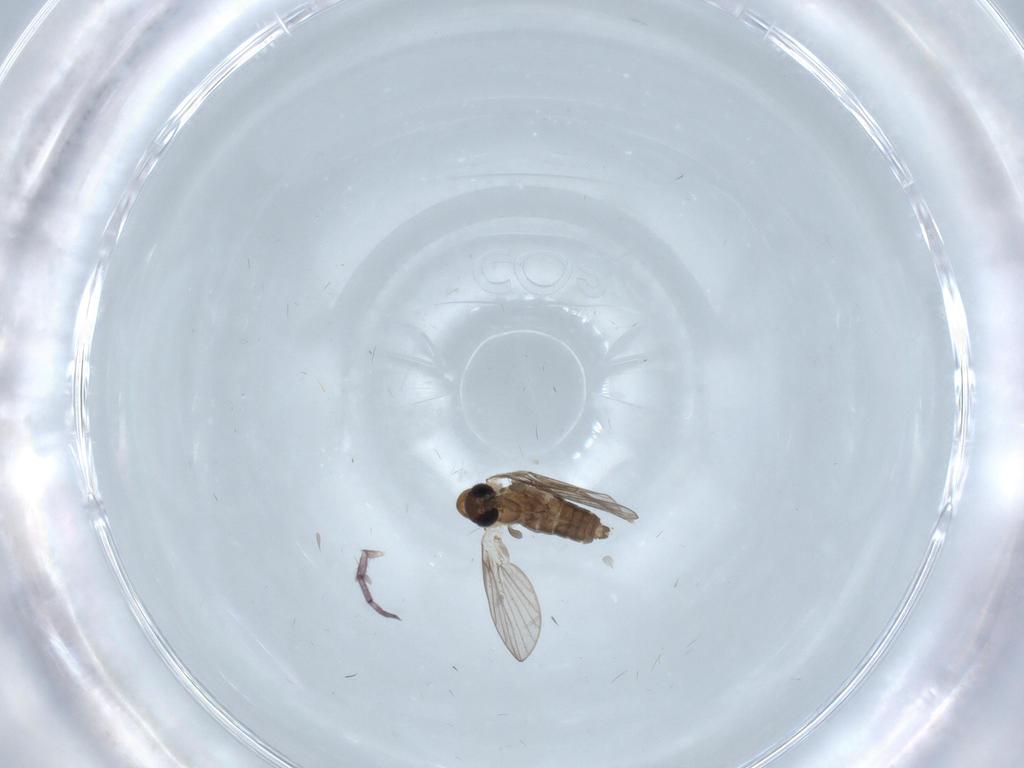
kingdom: Animalia
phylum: Arthropoda
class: Insecta
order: Diptera
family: Sciaridae
